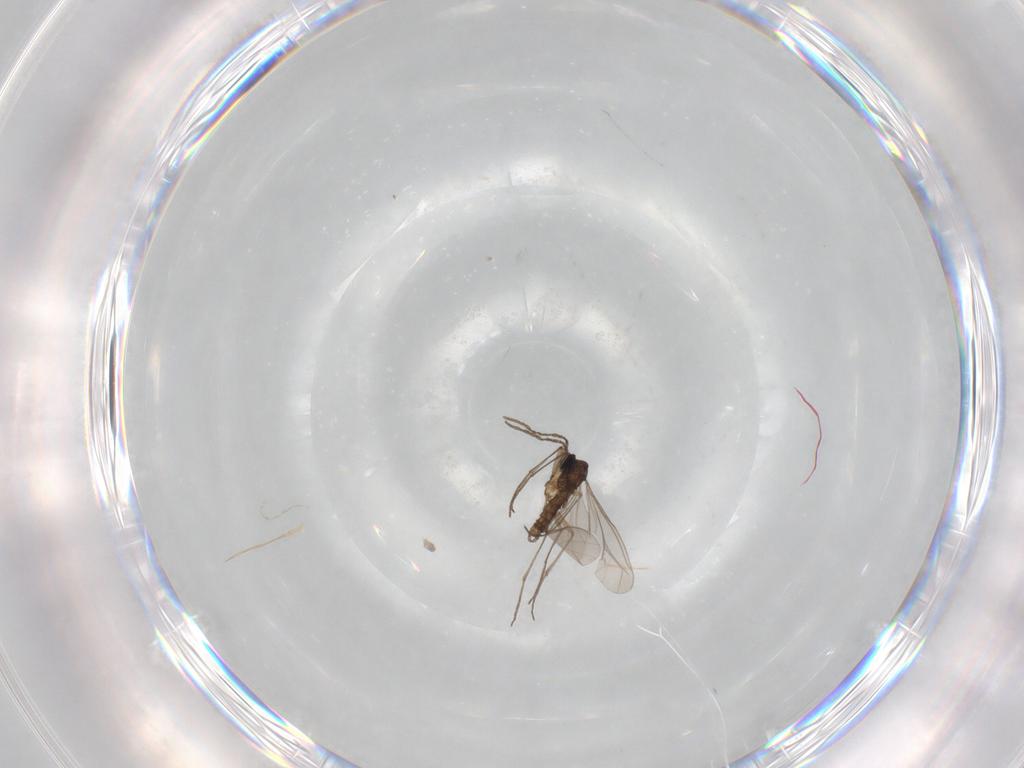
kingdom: Animalia
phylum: Arthropoda
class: Insecta
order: Diptera
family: Sciaridae
